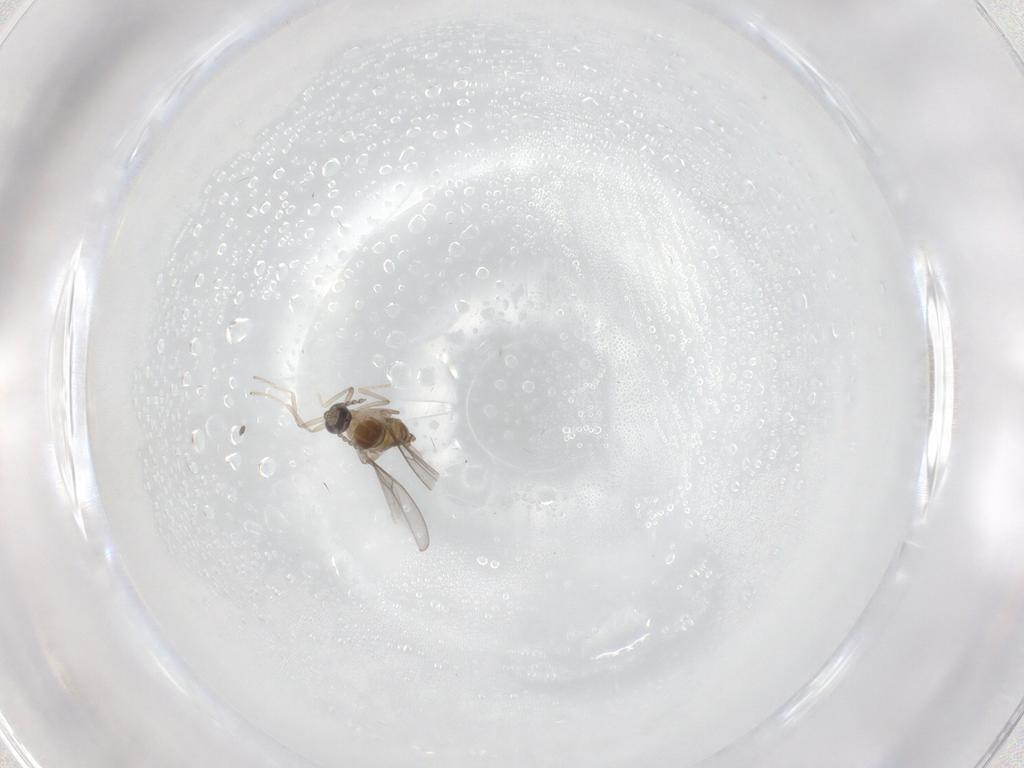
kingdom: Animalia
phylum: Arthropoda
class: Insecta
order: Diptera
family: Cecidomyiidae
